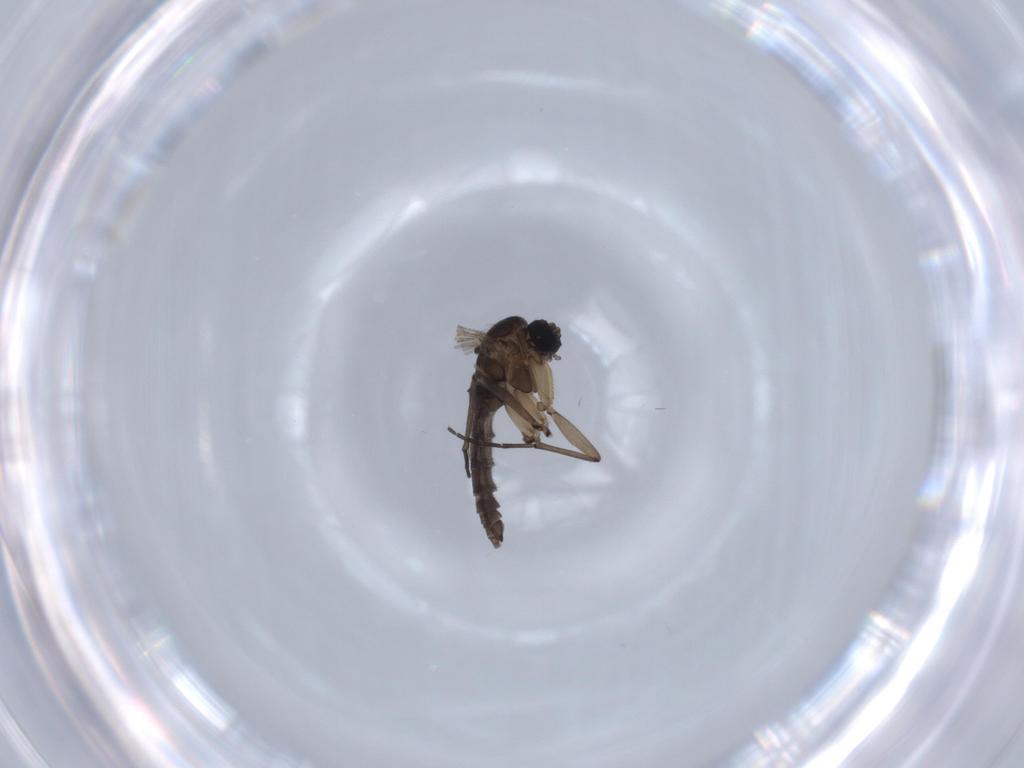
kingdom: Animalia
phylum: Arthropoda
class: Insecta
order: Diptera
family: Sciaridae
